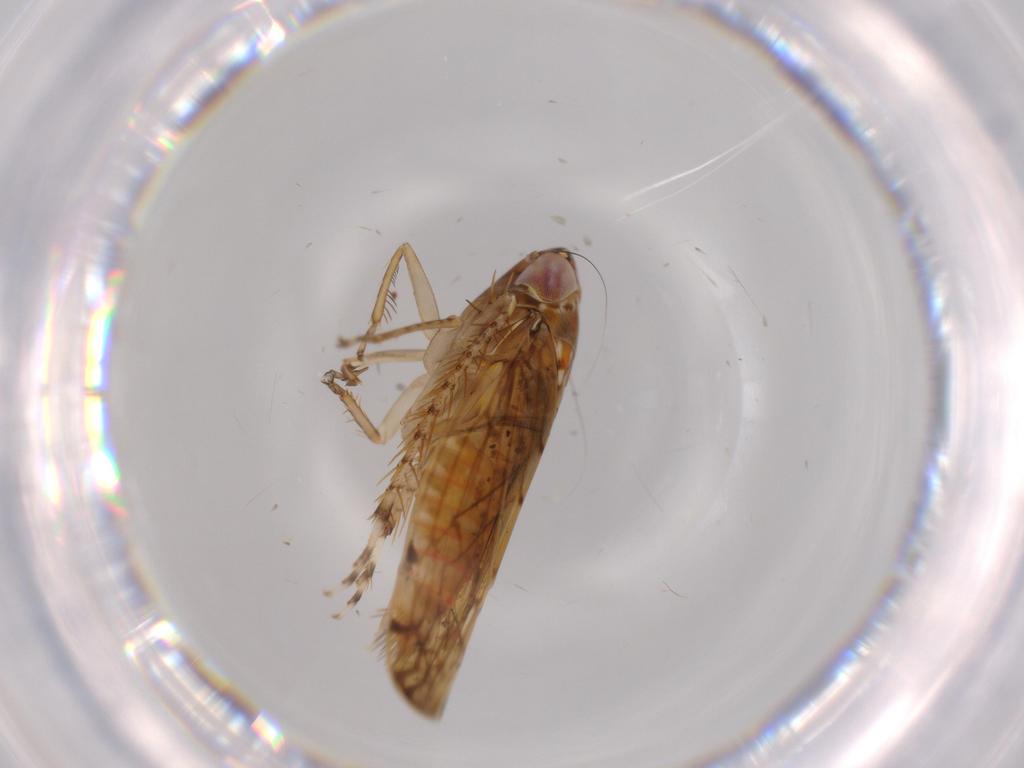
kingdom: Animalia
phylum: Arthropoda
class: Insecta
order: Hemiptera
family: Cicadellidae
